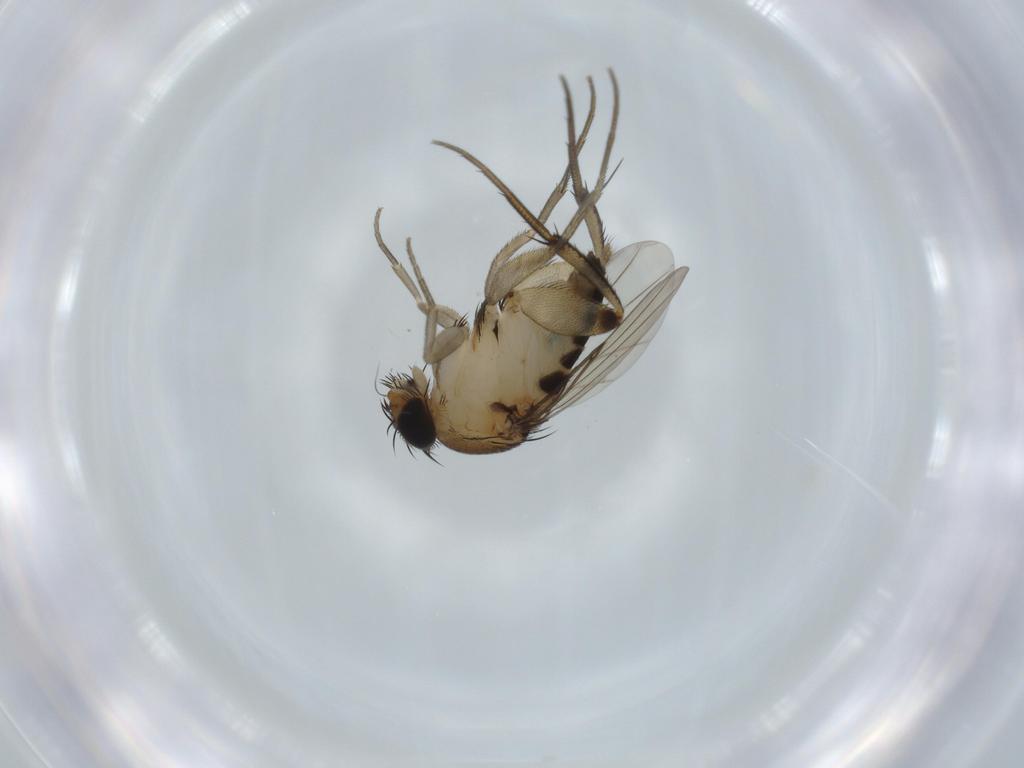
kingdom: Animalia
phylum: Arthropoda
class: Insecta
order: Diptera
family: Phoridae
